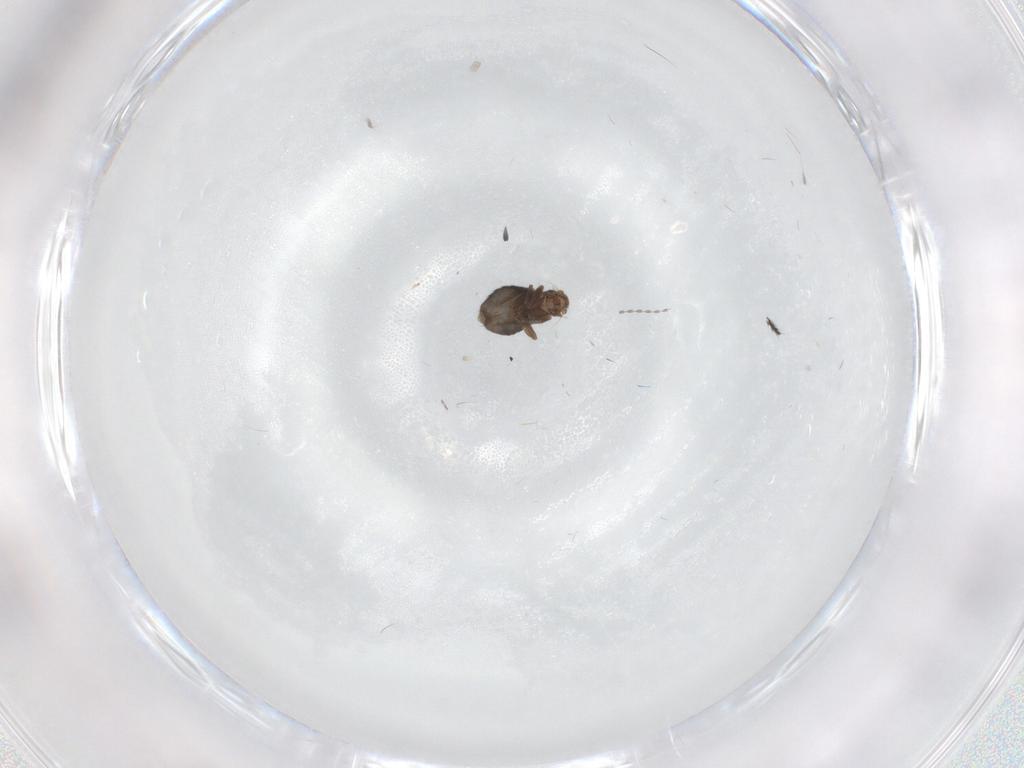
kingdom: Animalia
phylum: Arthropoda
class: Insecta
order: Diptera
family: Cecidomyiidae
